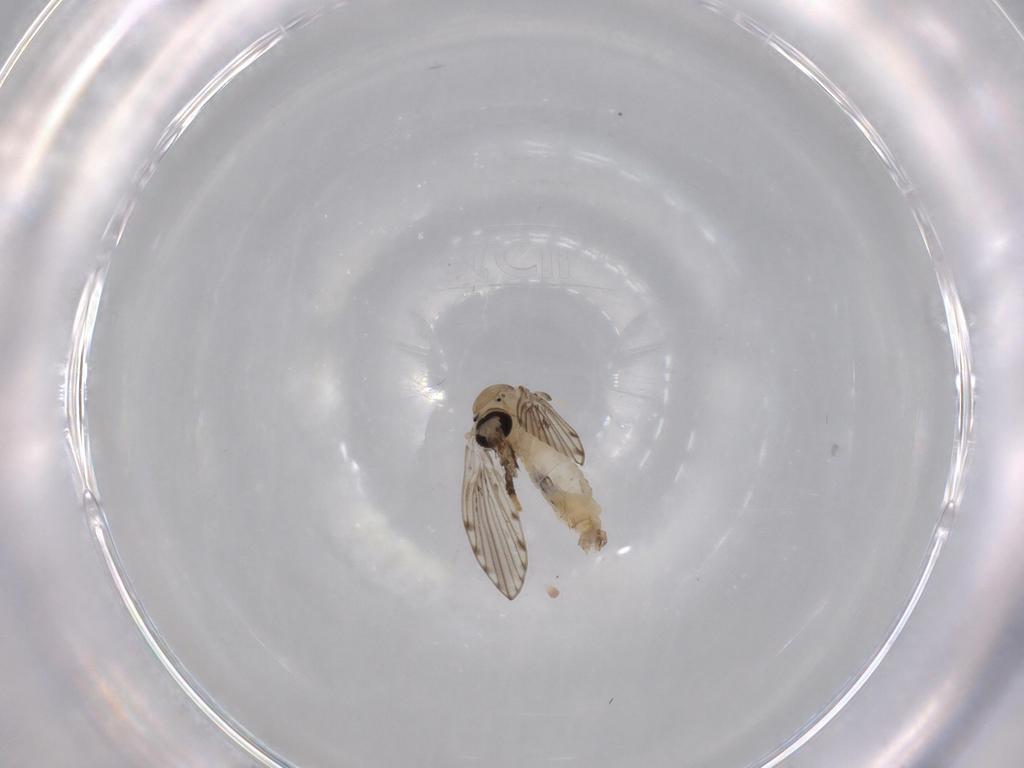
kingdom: Animalia
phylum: Arthropoda
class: Insecta
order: Diptera
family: Psychodidae
